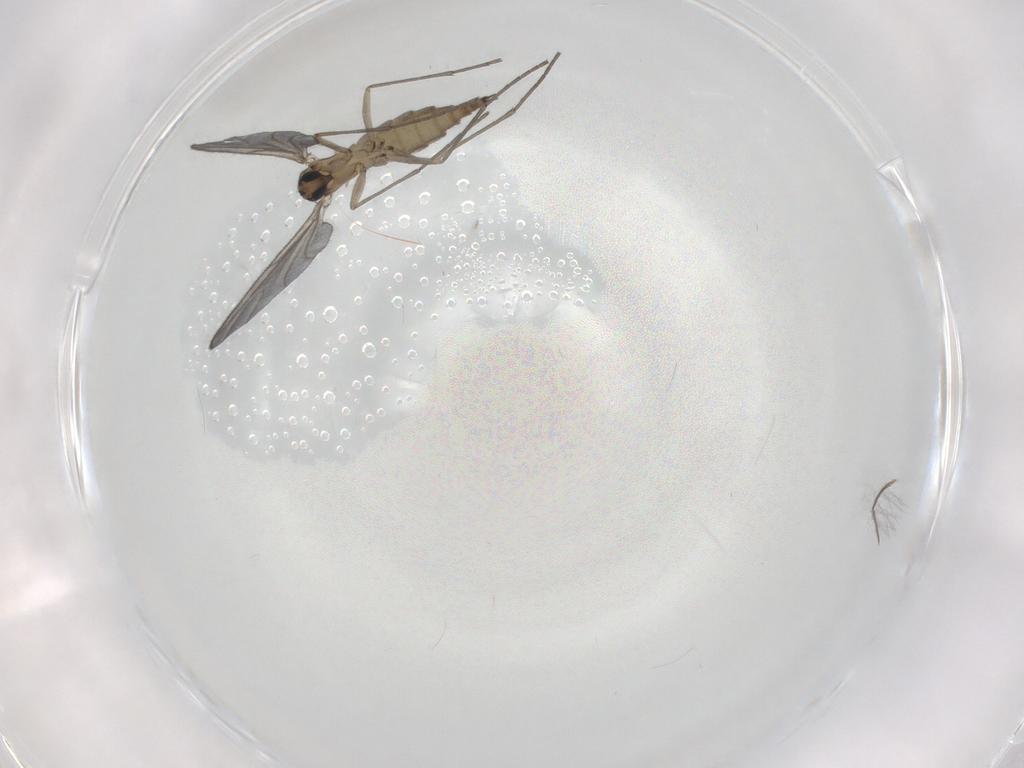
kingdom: Animalia
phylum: Arthropoda
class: Insecta
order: Diptera
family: Sciaridae
